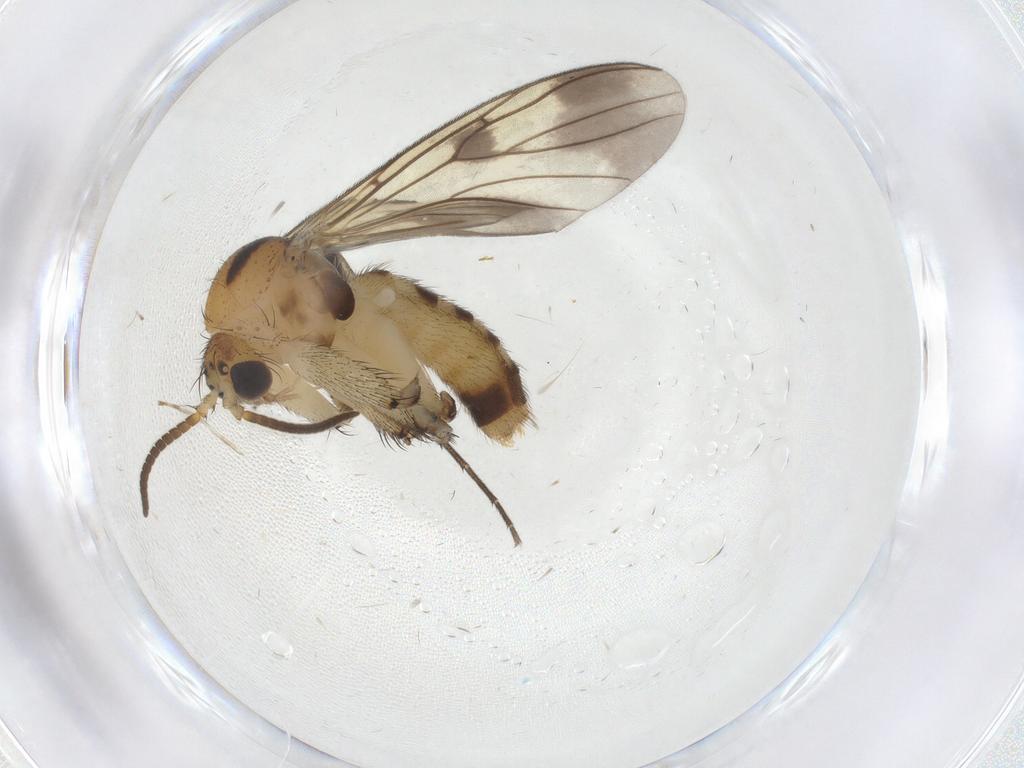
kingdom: Animalia
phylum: Arthropoda
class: Insecta
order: Diptera
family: Mycetophilidae
